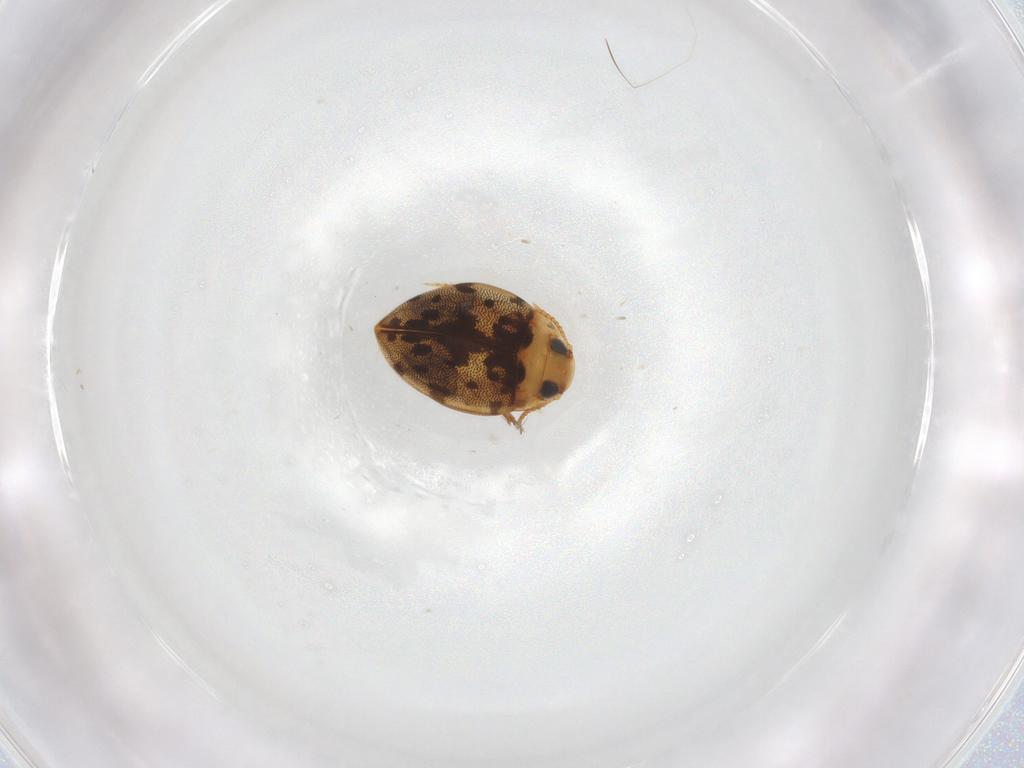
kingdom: Animalia
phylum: Arthropoda
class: Insecta
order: Coleoptera
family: Dytiscidae
